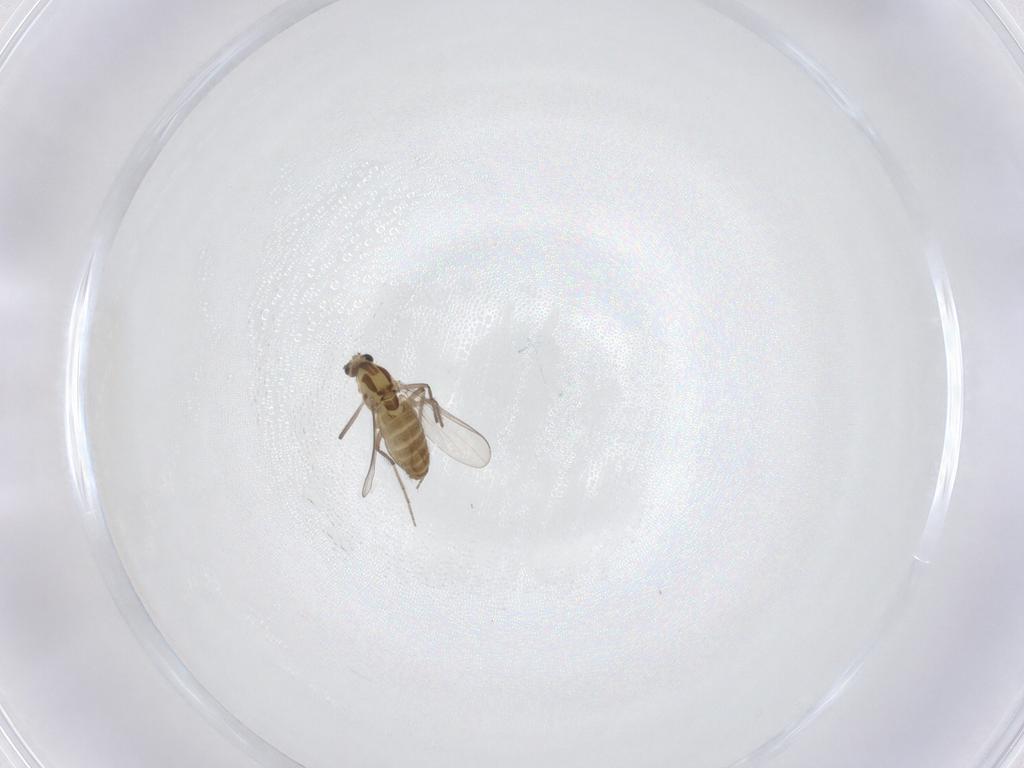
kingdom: Animalia
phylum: Arthropoda
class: Insecta
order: Diptera
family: Chironomidae
